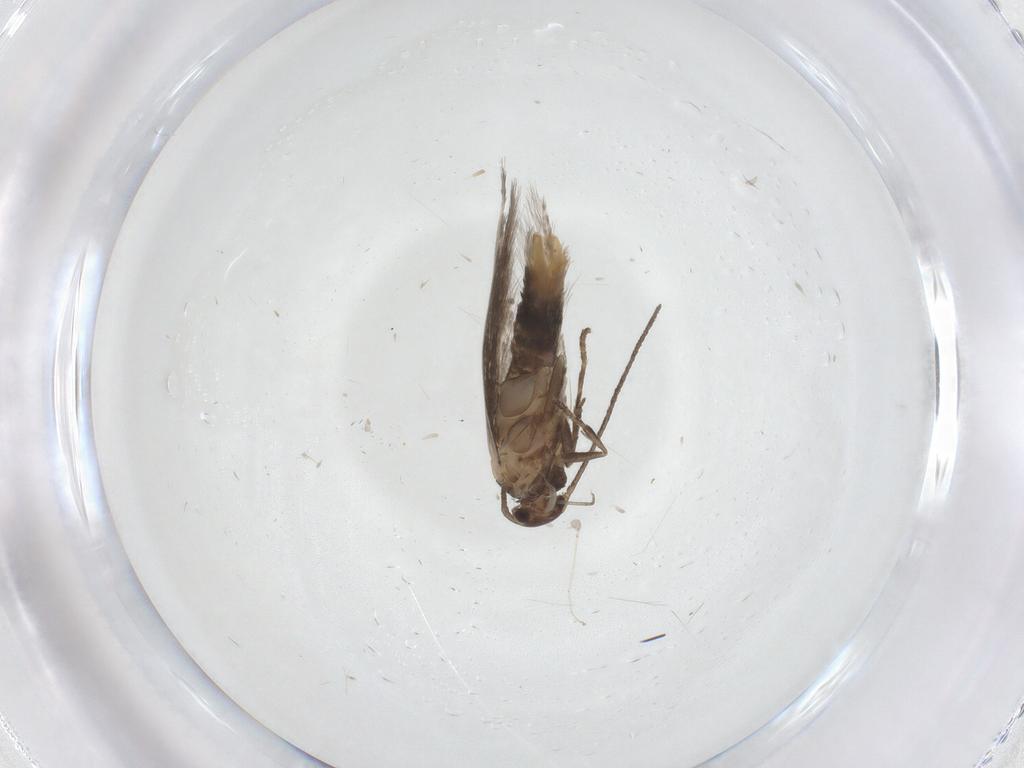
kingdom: Animalia
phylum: Arthropoda
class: Insecta
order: Lepidoptera
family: Elachistidae
